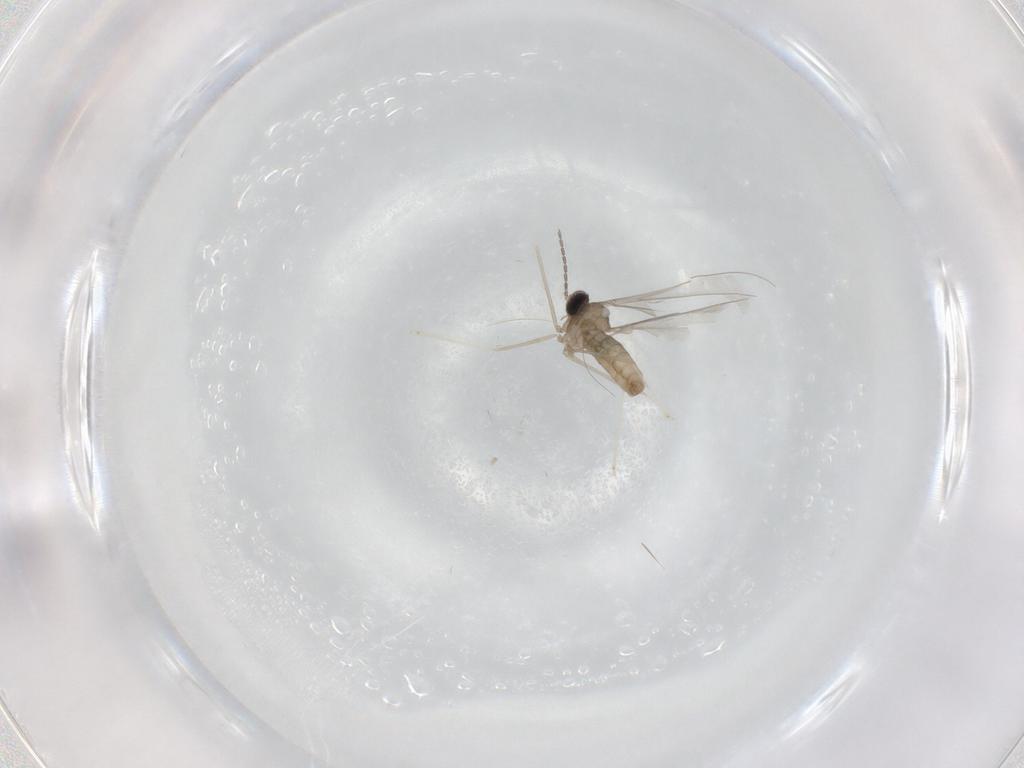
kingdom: Animalia
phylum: Arthropoda
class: Insecta
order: Diptera
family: Cecidomyiidae
